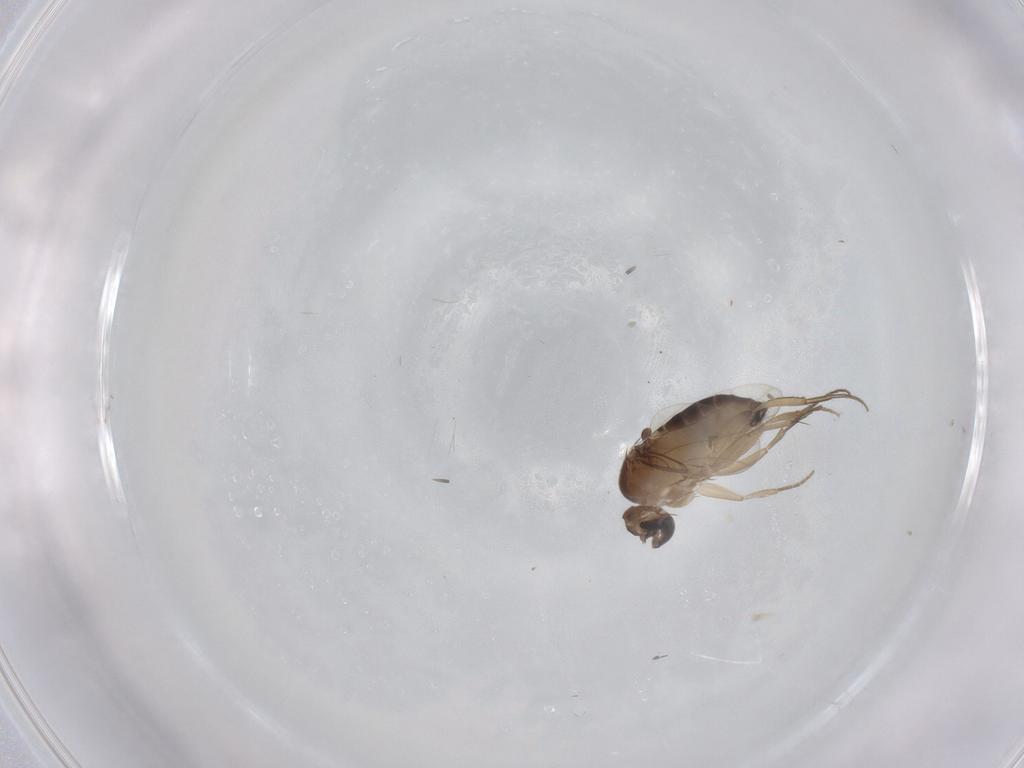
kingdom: Animalia
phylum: Arthropoda
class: Insecta
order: Diptera
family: Phoridae
